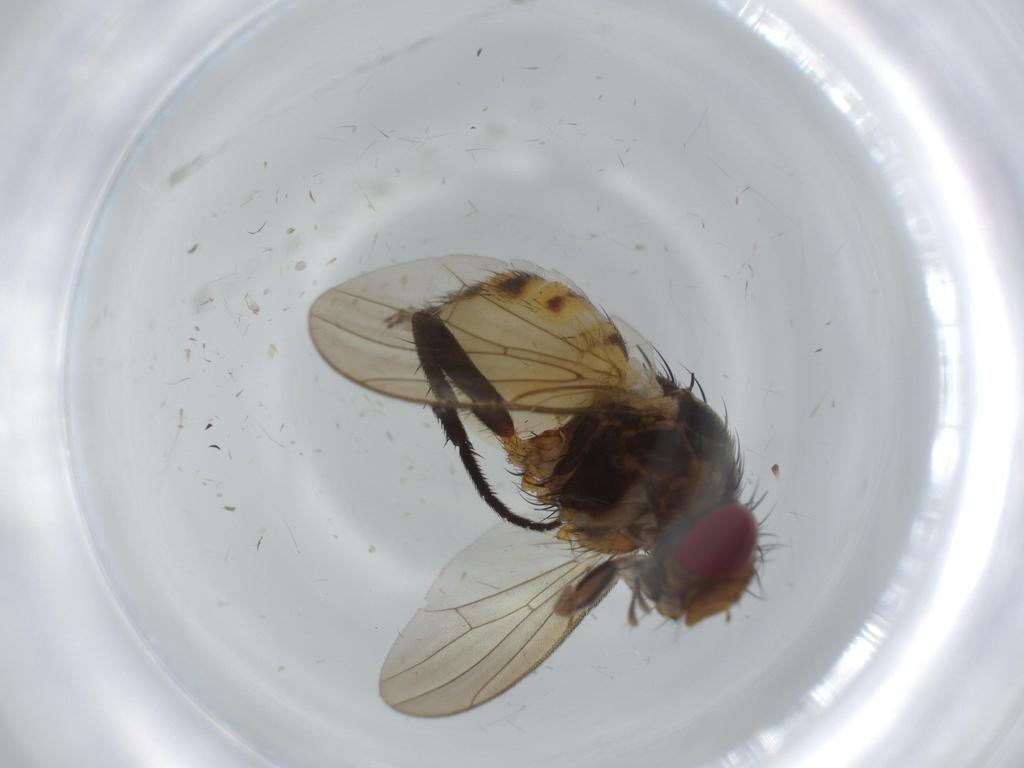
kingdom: Animalia
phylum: Arthropoda
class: Insecta
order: Diptera
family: Anthomyiidae
